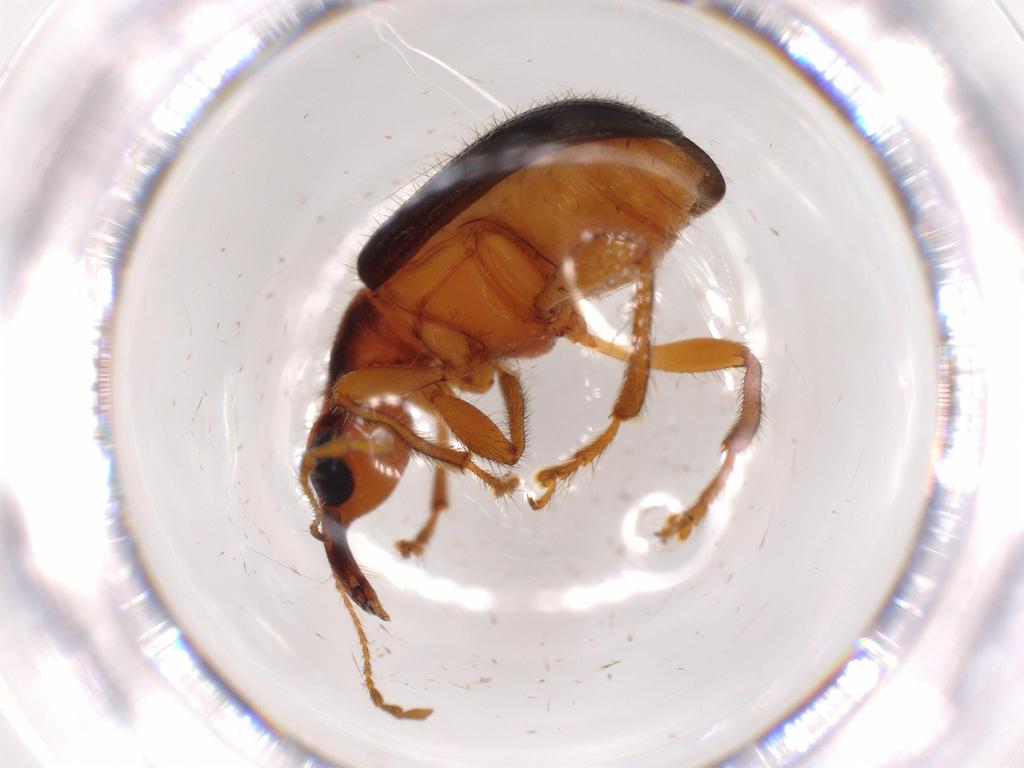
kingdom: Animalia
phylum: Arthropoda
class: Insecta
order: Coleoptera
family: Chrysomelidae
